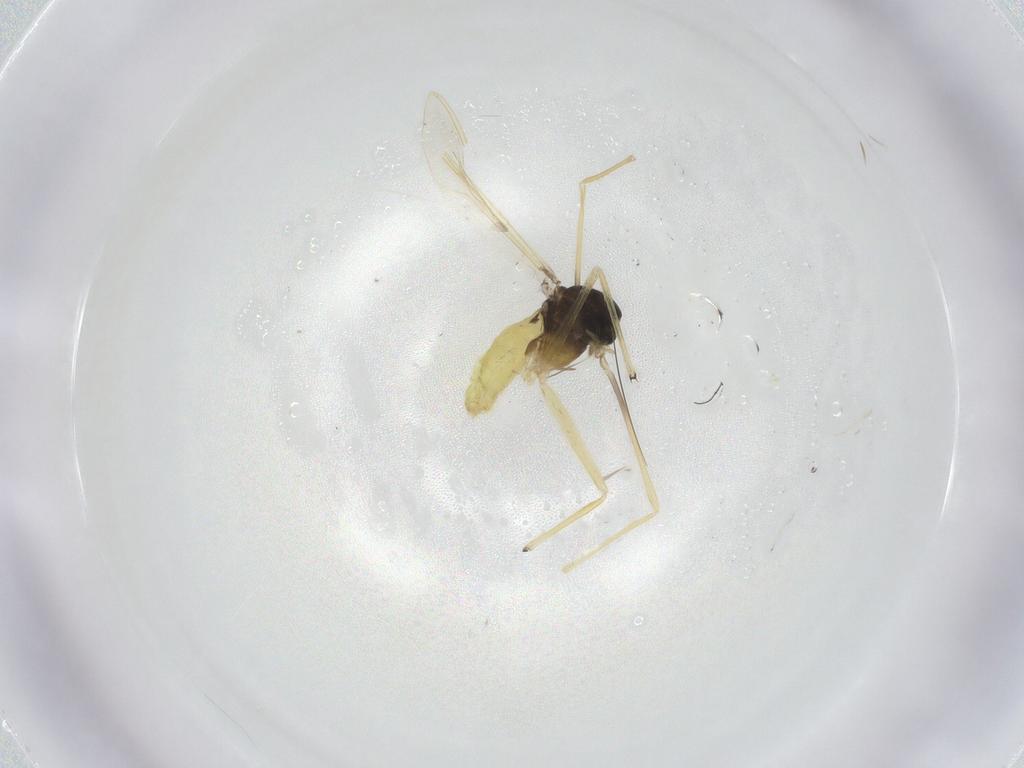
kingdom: Animalia
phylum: Arthropoda
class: Insecta
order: Diptera
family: Chironomidae
